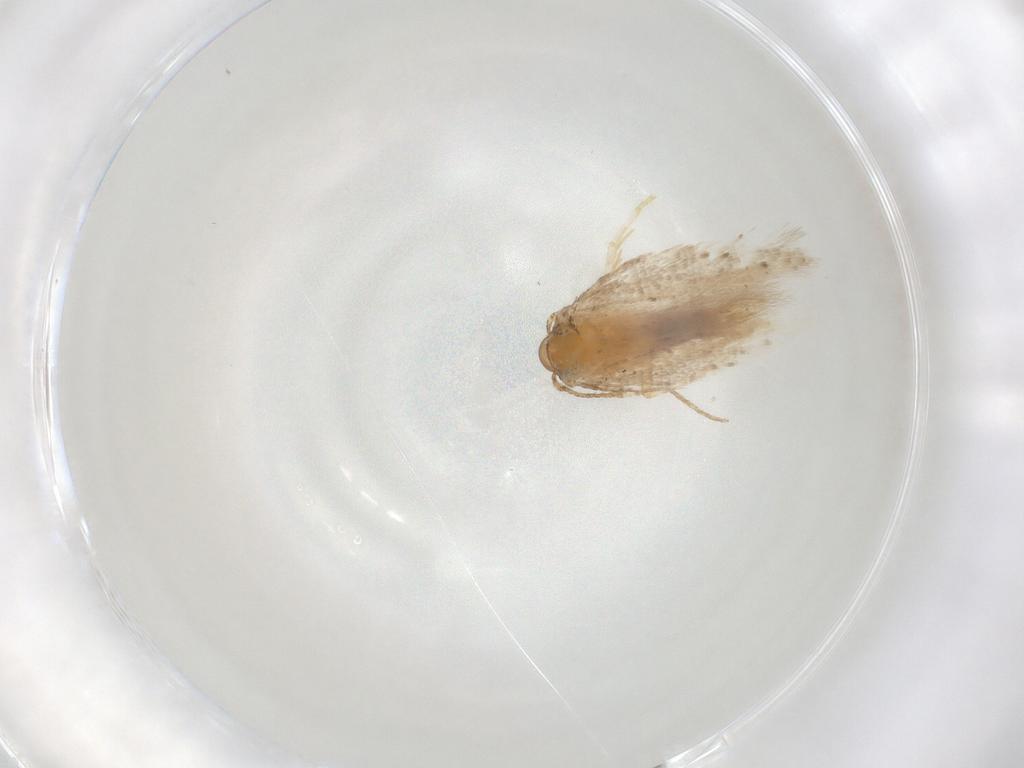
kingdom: Animalia
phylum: Arthropoda
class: Insecta
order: Lepidoptera
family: Gelechiidae
